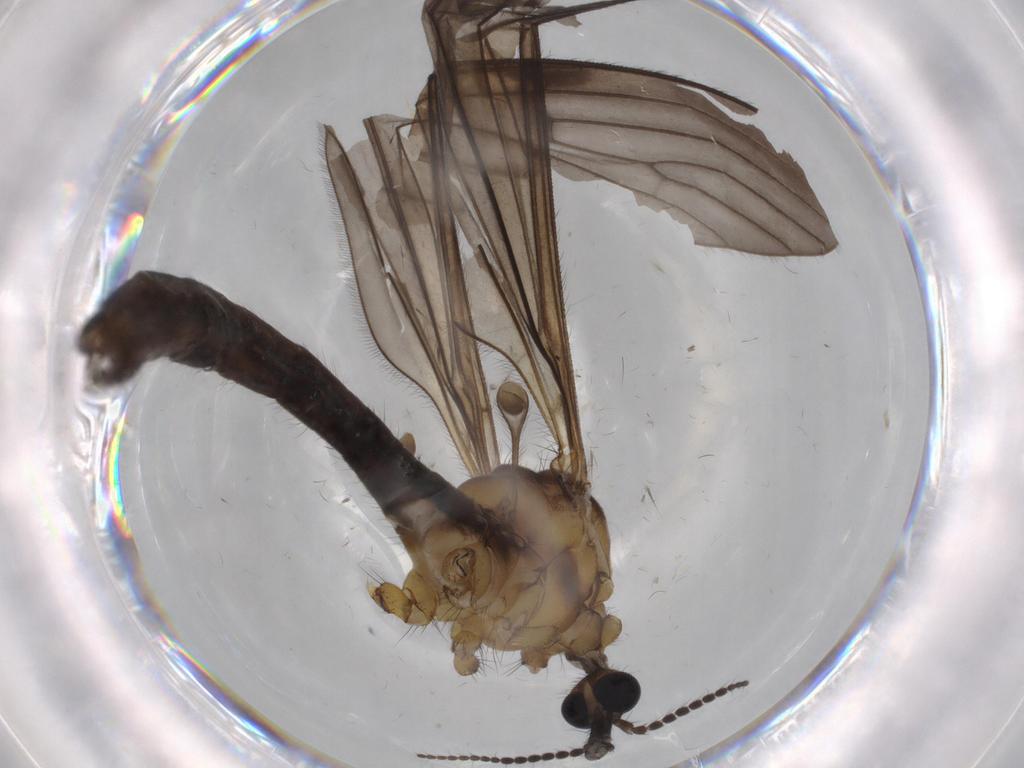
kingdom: Animalia
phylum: Arthropoda
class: Insecta
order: Diptera
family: Limoniidae
